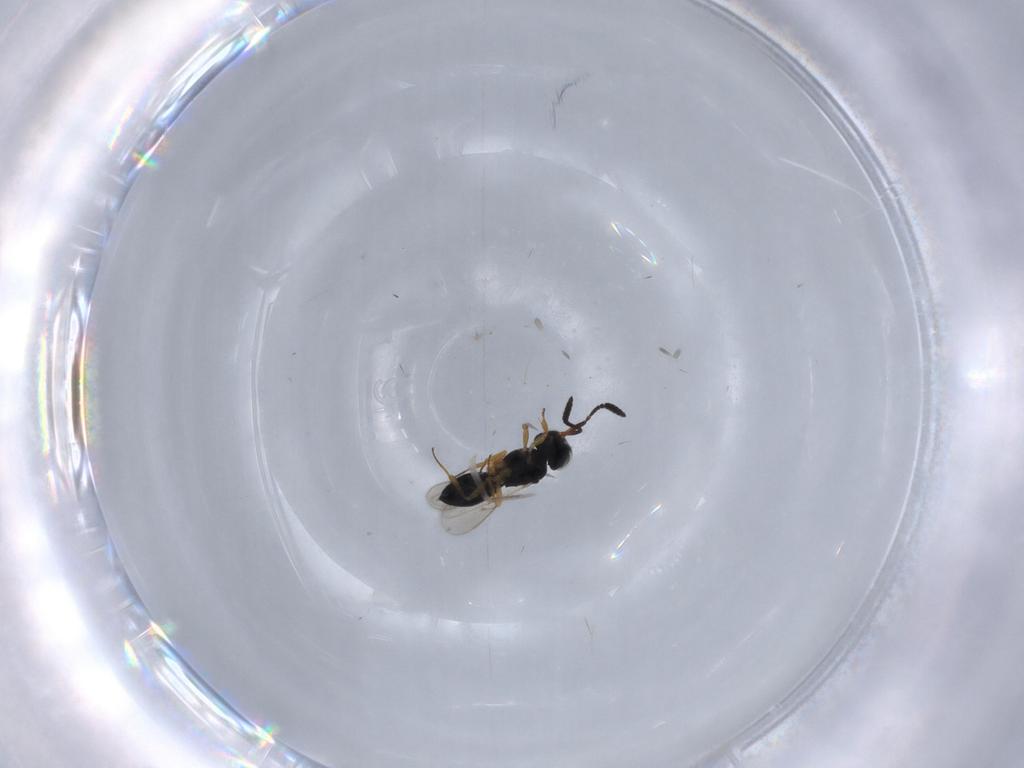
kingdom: Animalia
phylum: Arthropoda
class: Insecta
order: Hymenoptera
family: Scelionidae
